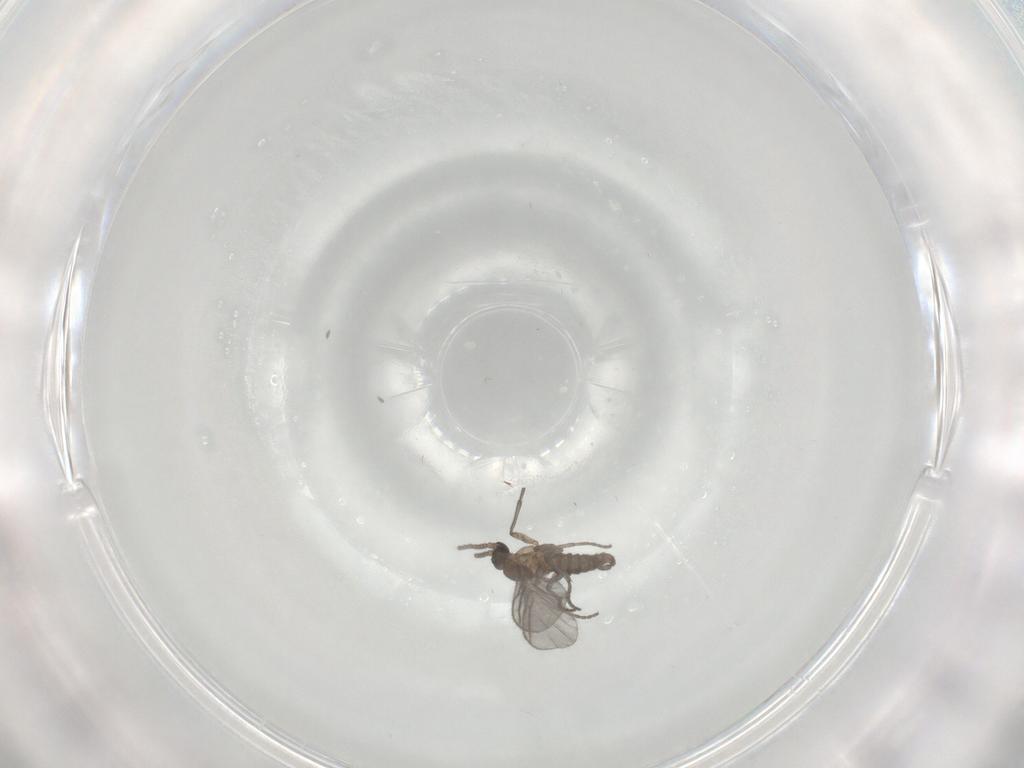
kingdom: Animalia
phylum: Arthropoda
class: Insecta
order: Diptera
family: Sciaridae
